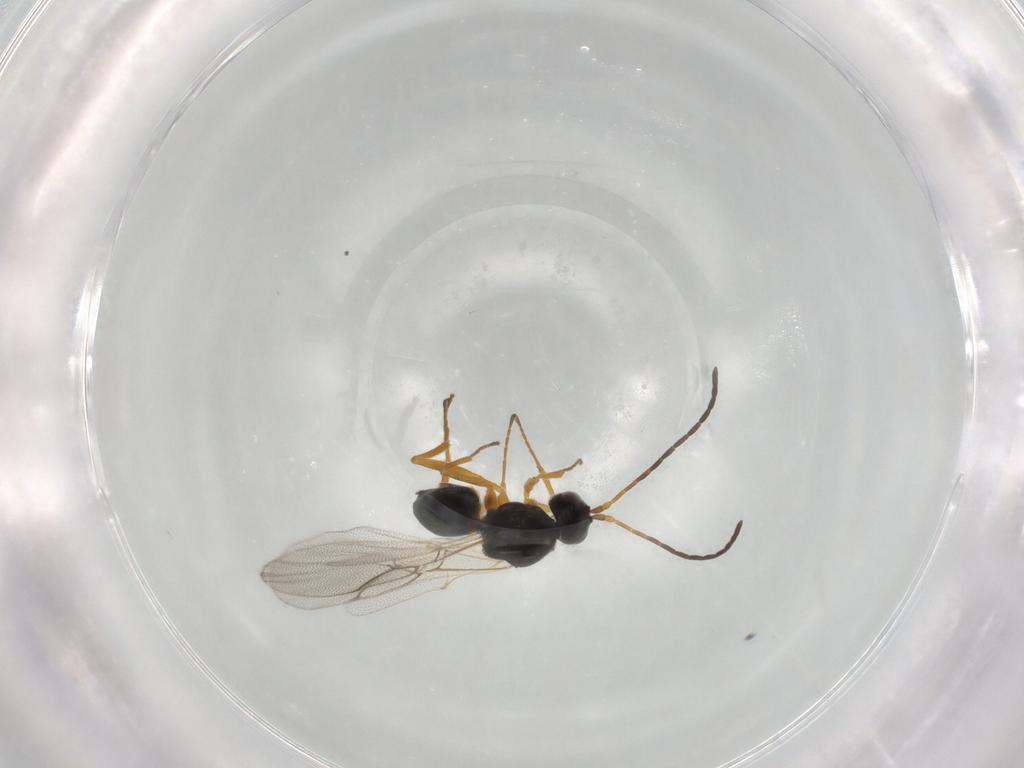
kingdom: Animalia
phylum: Arthropoda
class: Insecta
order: Hymenoptera
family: Figitidae
